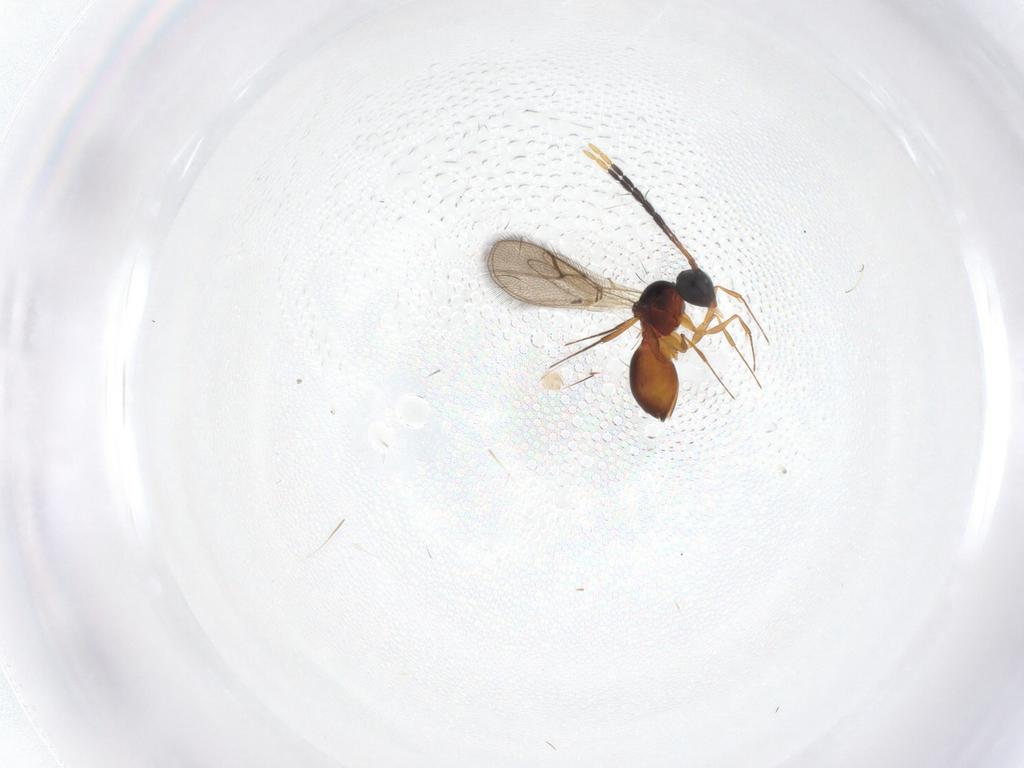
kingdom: Animalia
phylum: Arthropoda
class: Insecta
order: Hymenoptera
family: Figitidae
